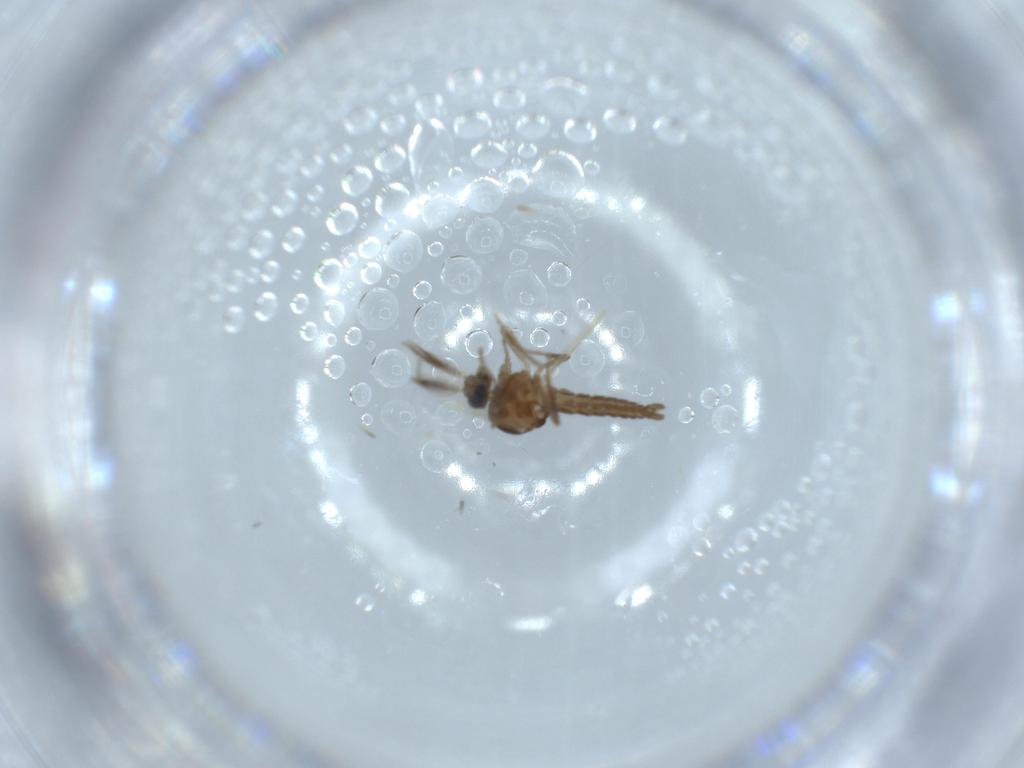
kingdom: Animalia
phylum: Arthropoda
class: Insecta
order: Diptera
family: Ceratopogonidae
